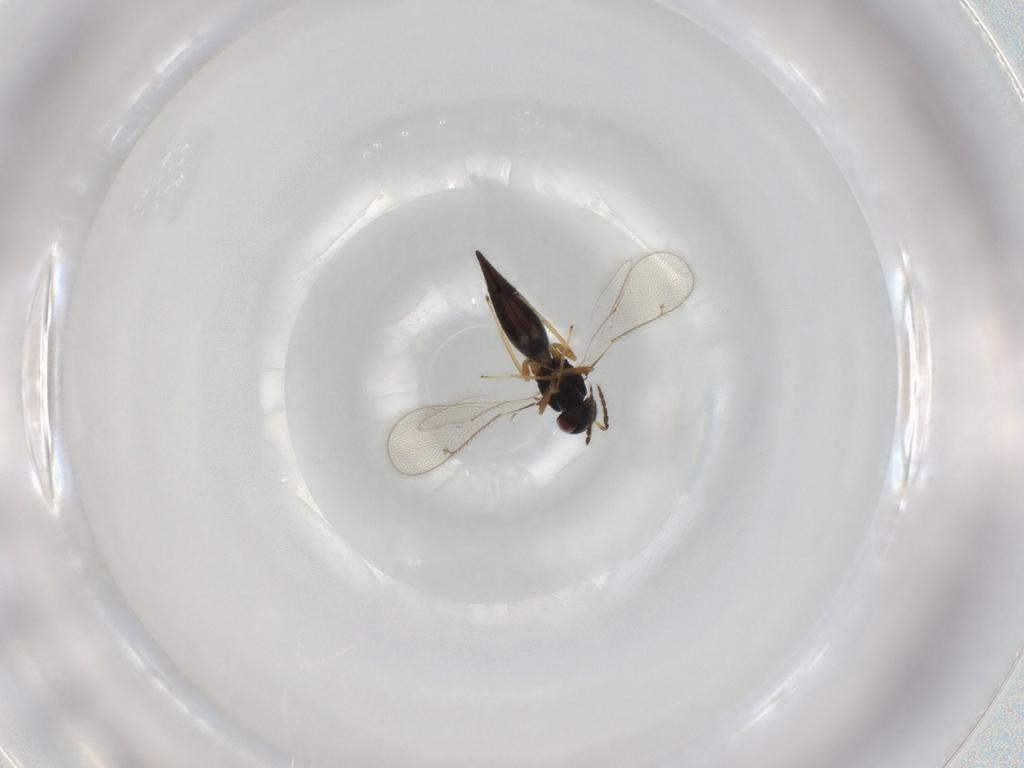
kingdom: Animalia
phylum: Arthropoda
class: Insecta
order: Hymenoptera
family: Eulophidae
